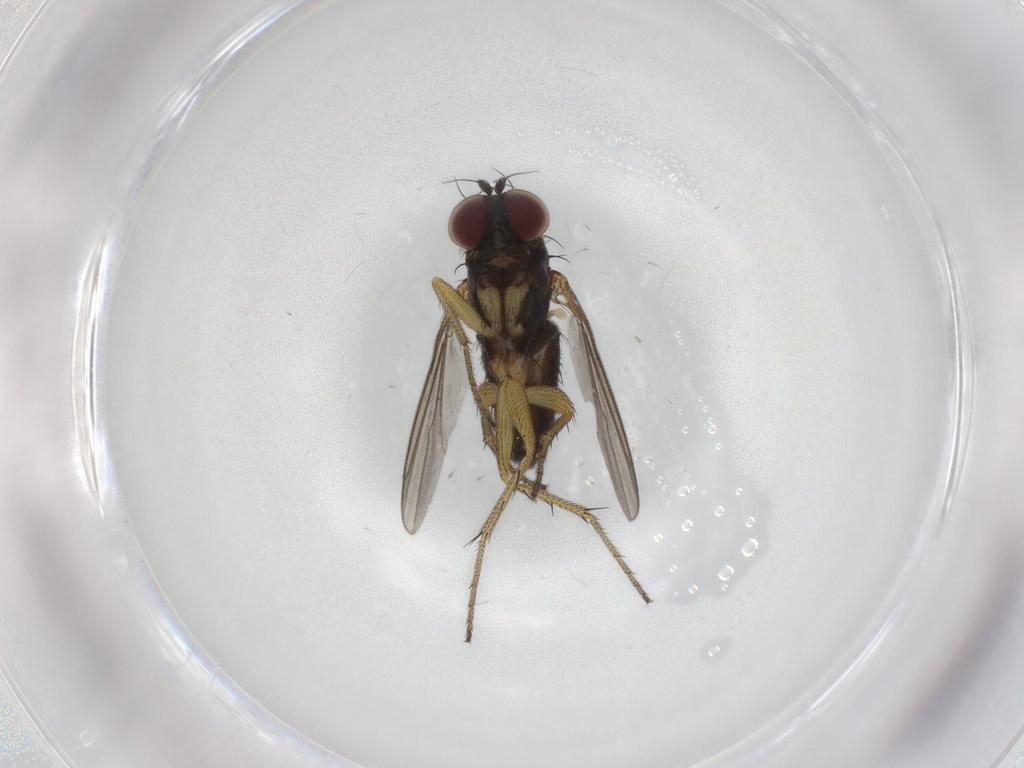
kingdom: Animalia
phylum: Arthropoda
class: Insecta
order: Diptera
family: Dolichopodidae
